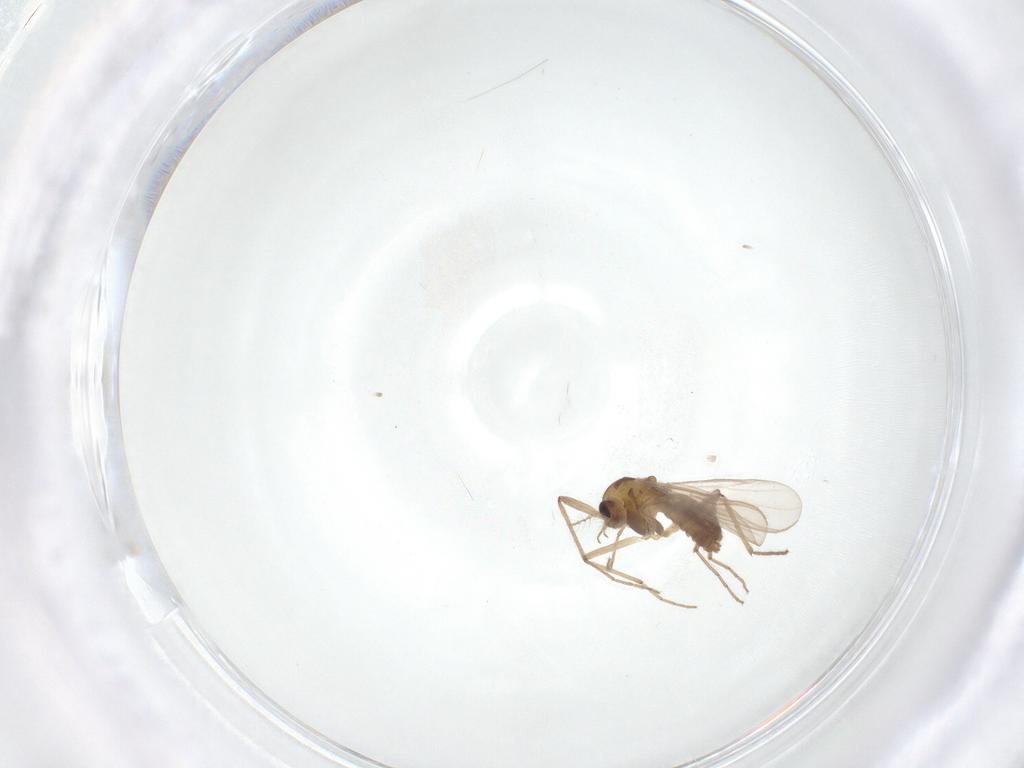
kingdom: Animalia
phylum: Arthropoda
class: Insecta
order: Diptera
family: Chironomidae
